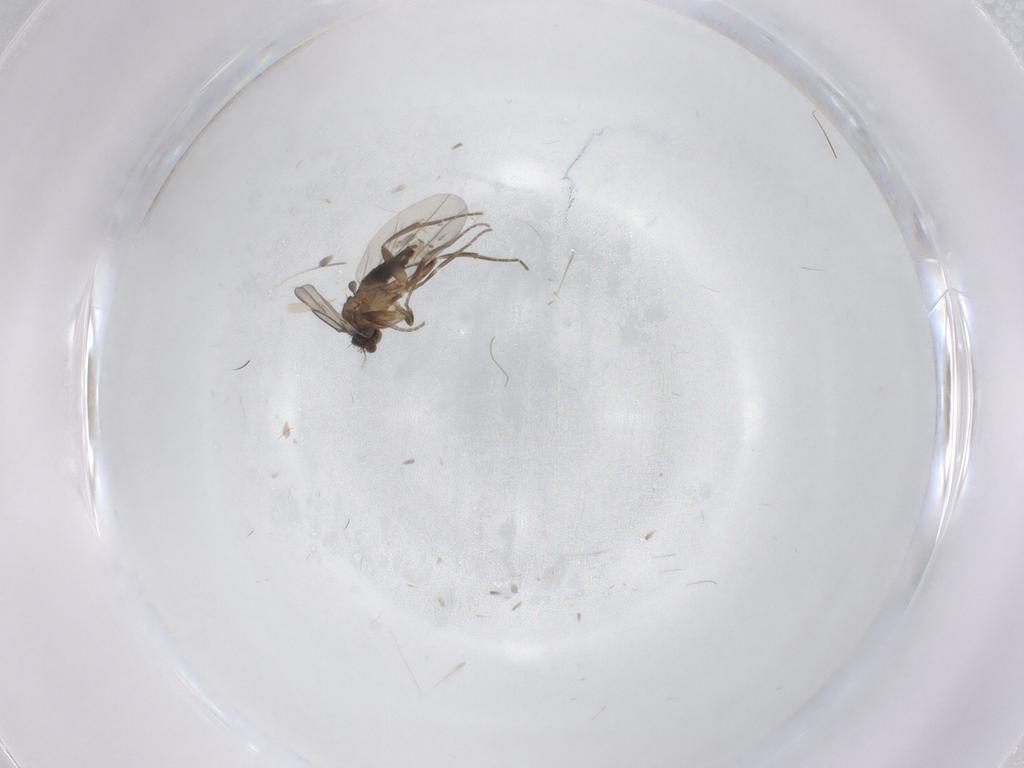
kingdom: Animalia
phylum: Arthropoda
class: Insecta
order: Diptera
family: Phoridae
